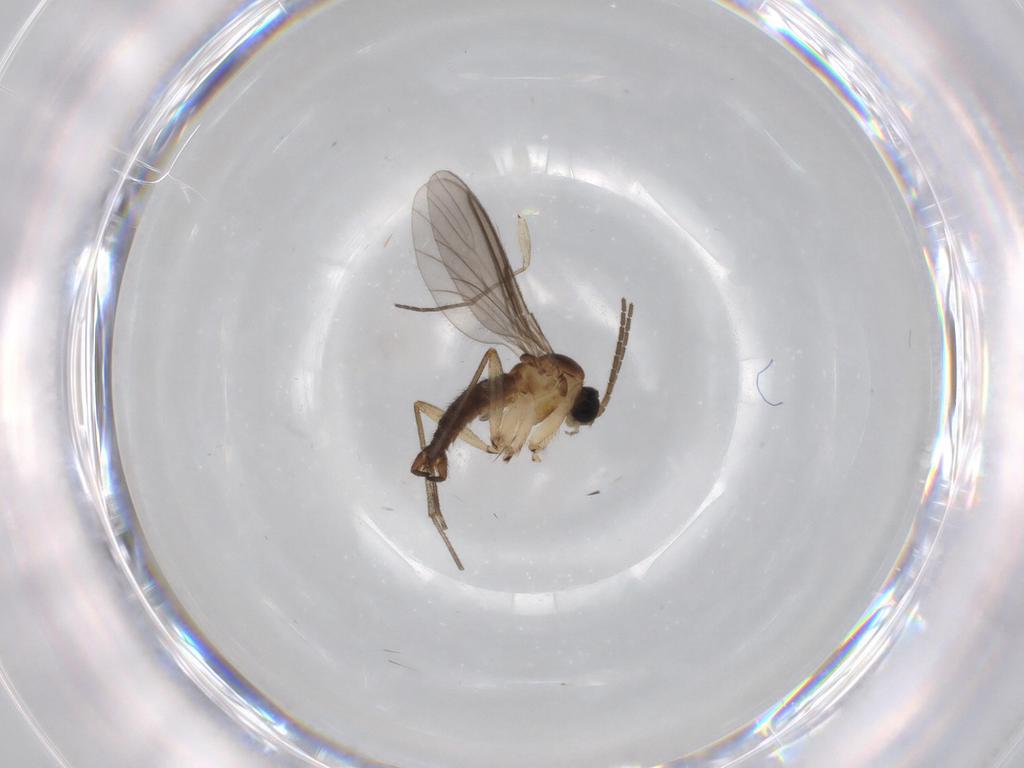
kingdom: Animalia
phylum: Arthropoda
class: Insecta
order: Diptera
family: Sciaridae
